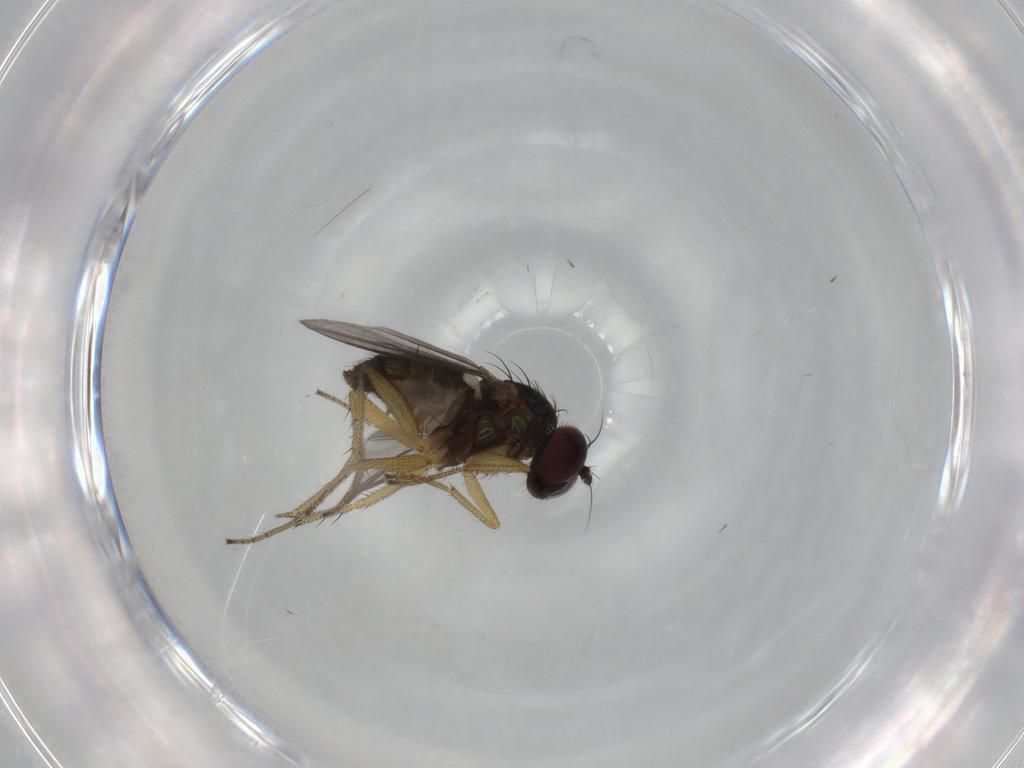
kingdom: Animalia
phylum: Arthropoda
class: Insecta
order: Diptera
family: Dolichopodidae
